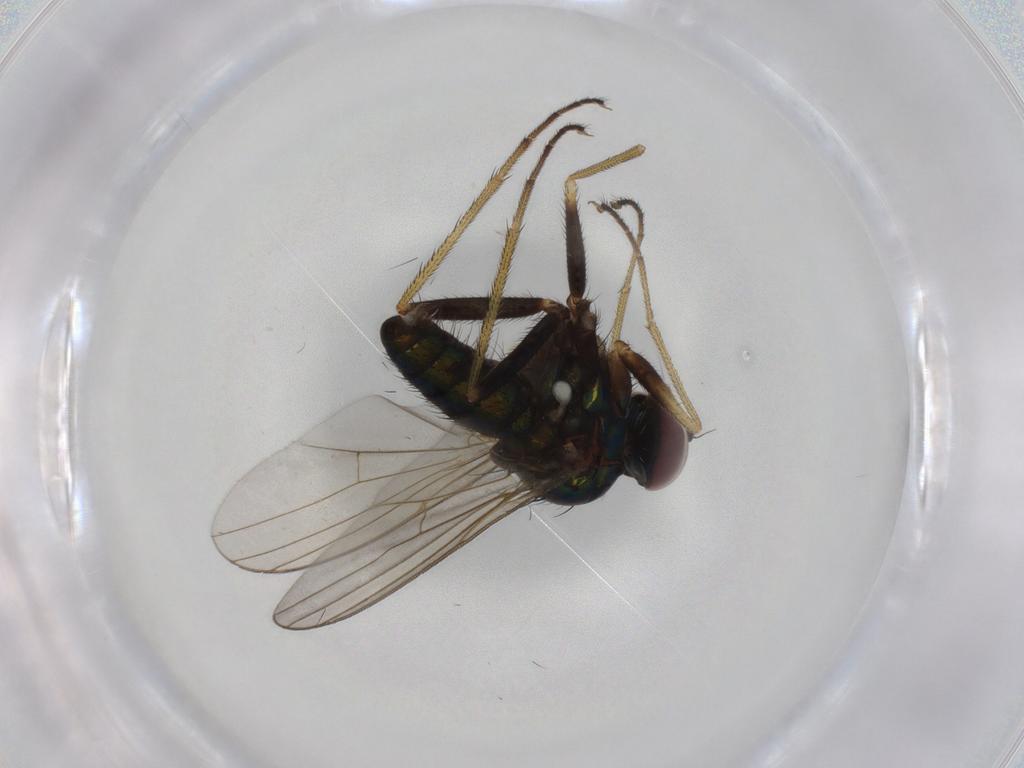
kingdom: Animalia
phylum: Arthropoda
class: Insecta
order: Diptera
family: Dolichopodidae
